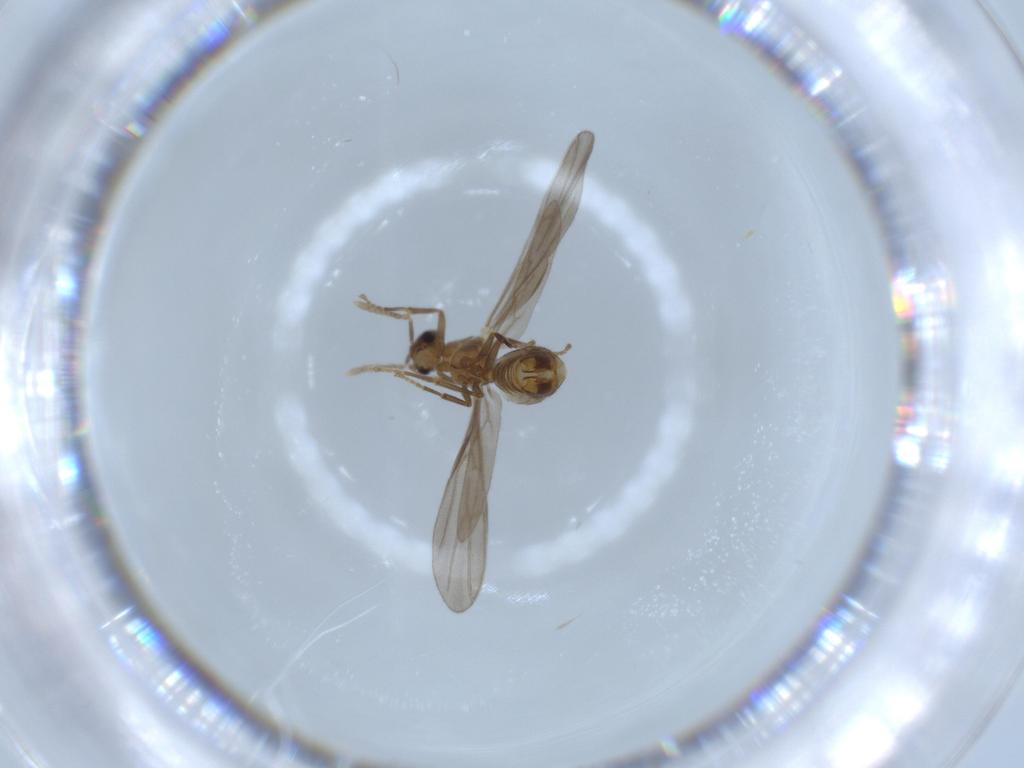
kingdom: Animalia
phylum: Arthropoda
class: Insecta
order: Hymenoptera
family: Formicidae
